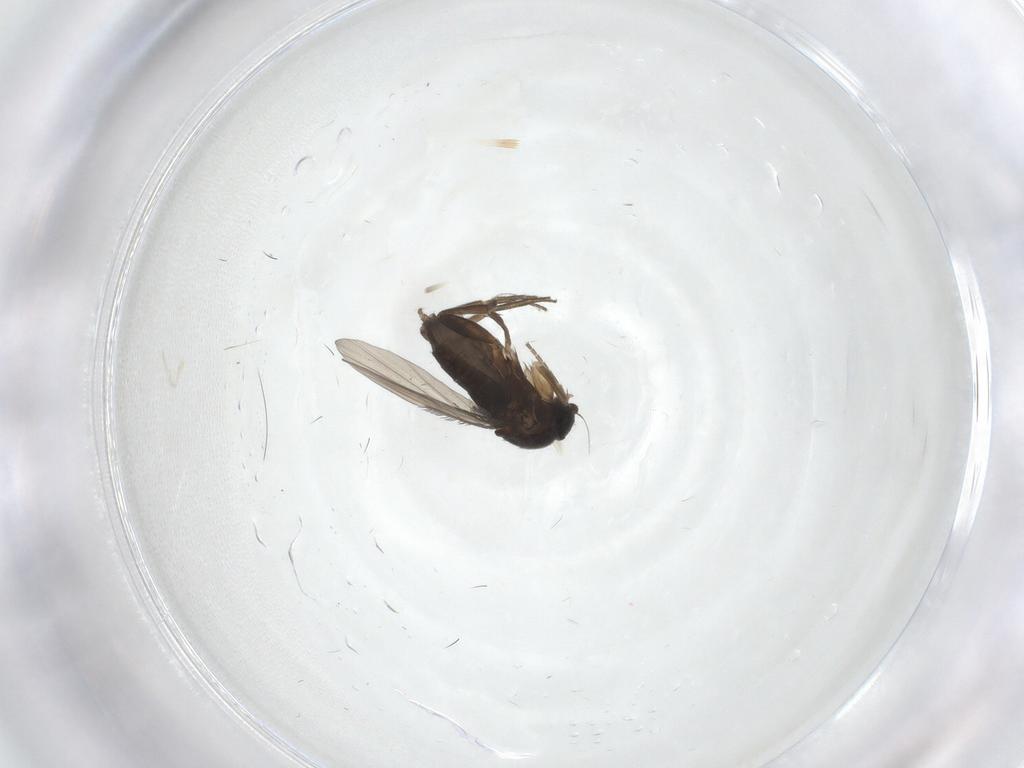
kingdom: Animalia
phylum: Arthropoda
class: Insecta
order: Diptera
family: Phoridae
